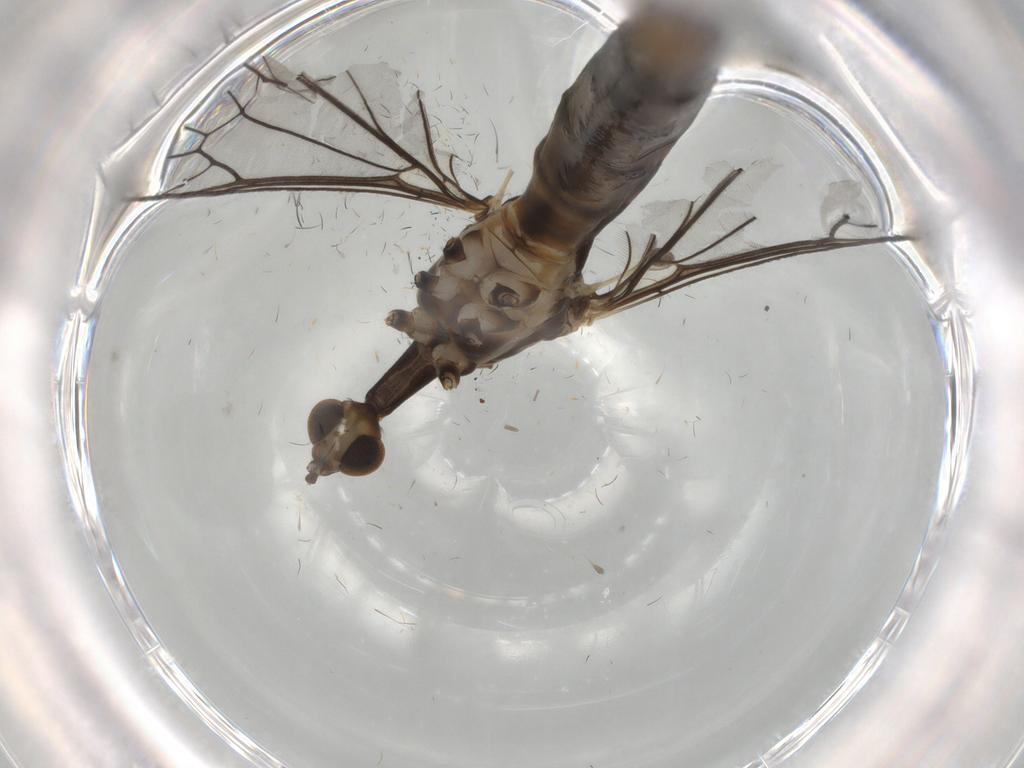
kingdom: Animalia
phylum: Arthropoda
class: Insecta
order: Diptera
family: Limoniidae
